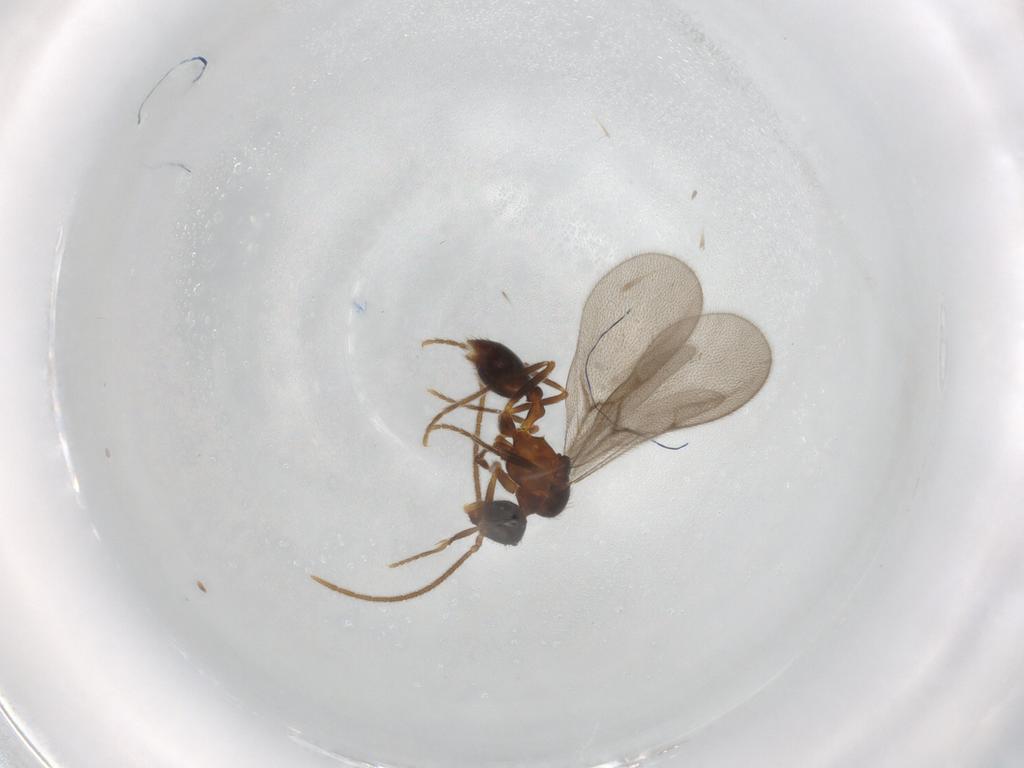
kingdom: Animalia
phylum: Arthropoda
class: Insecta
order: Hymenoptera
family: Formicidae
